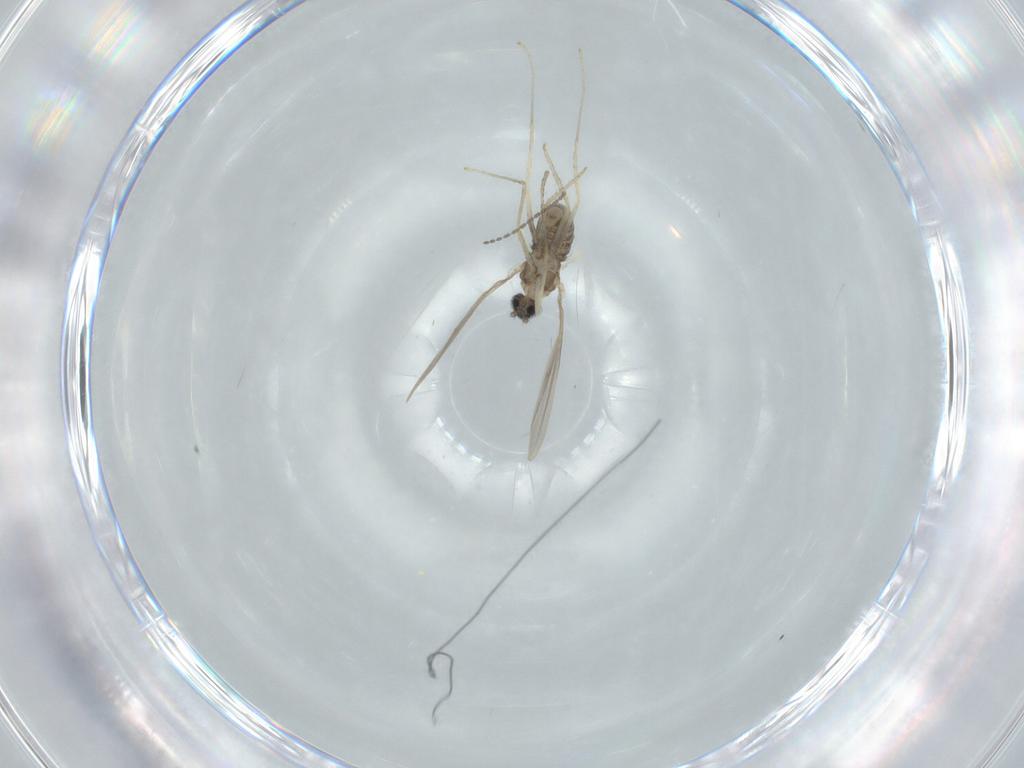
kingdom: Animalia
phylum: Arthropoda
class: Insecta
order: Diptera
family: Cecidomyiidae
